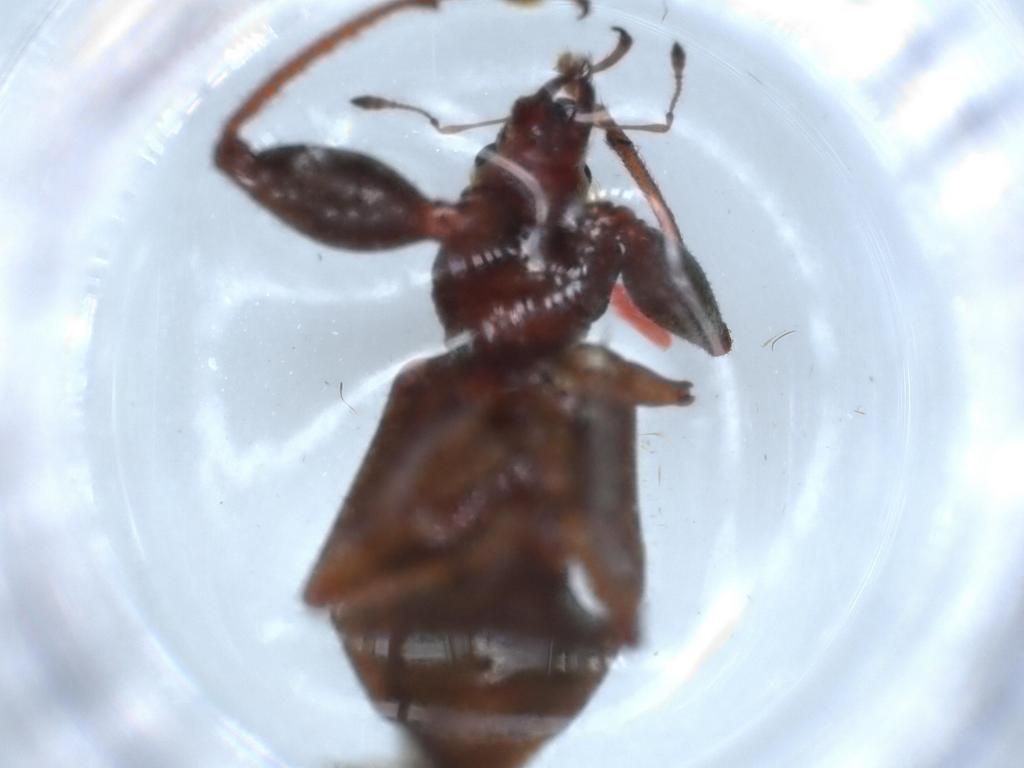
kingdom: Animalia
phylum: Arthropoda
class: Insecta
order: Coleoptera
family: Curculionidae
